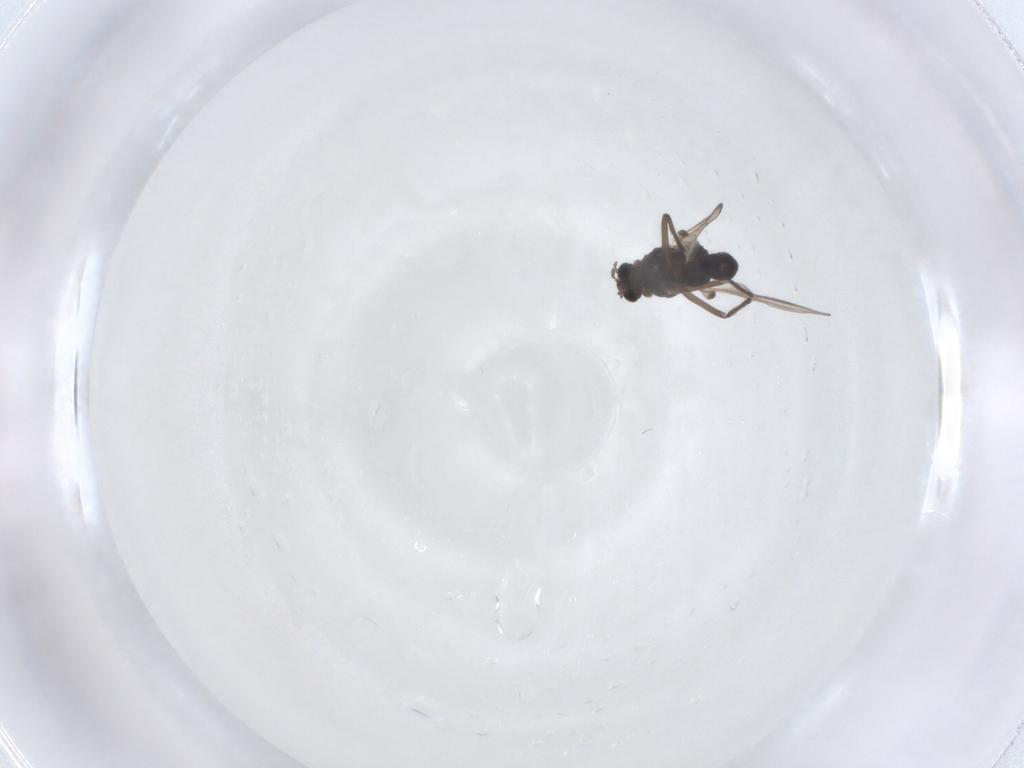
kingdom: Animalia
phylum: Arthropoda
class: Insecta
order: Diptera
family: Chironomidae
